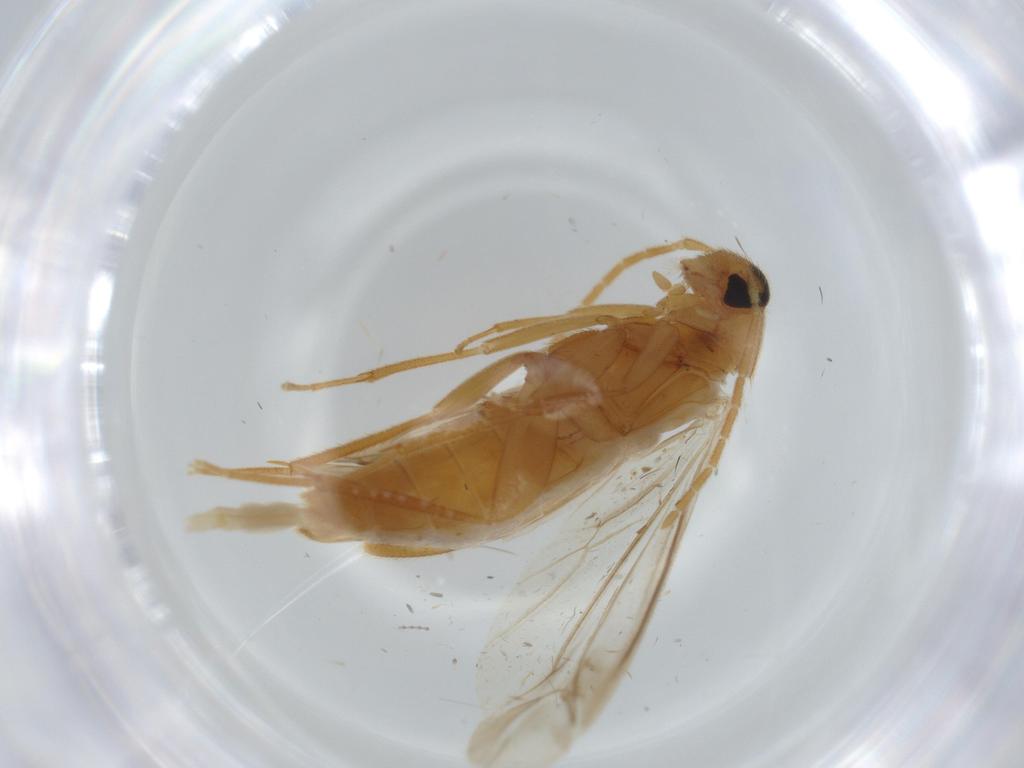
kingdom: Animalia
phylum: Arthropoda
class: Insecta
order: Coleoptera
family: Scraptiidae
